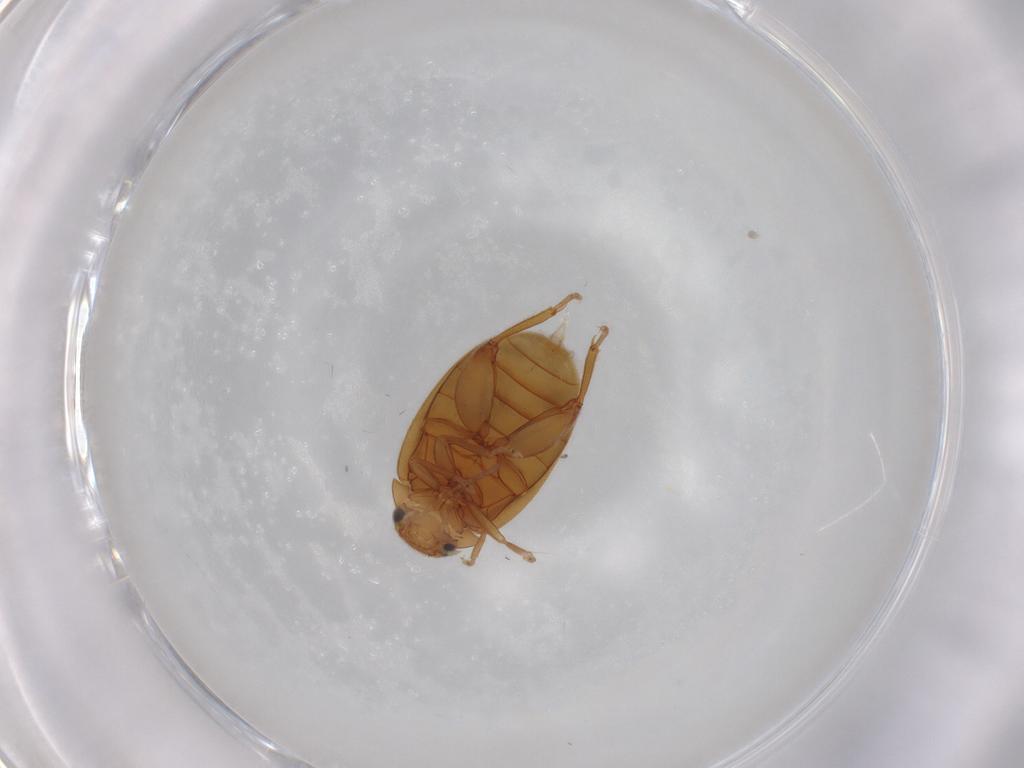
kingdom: Animalia
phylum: Arthropoda
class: Insecta
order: Coleoptera
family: Scirtidae
